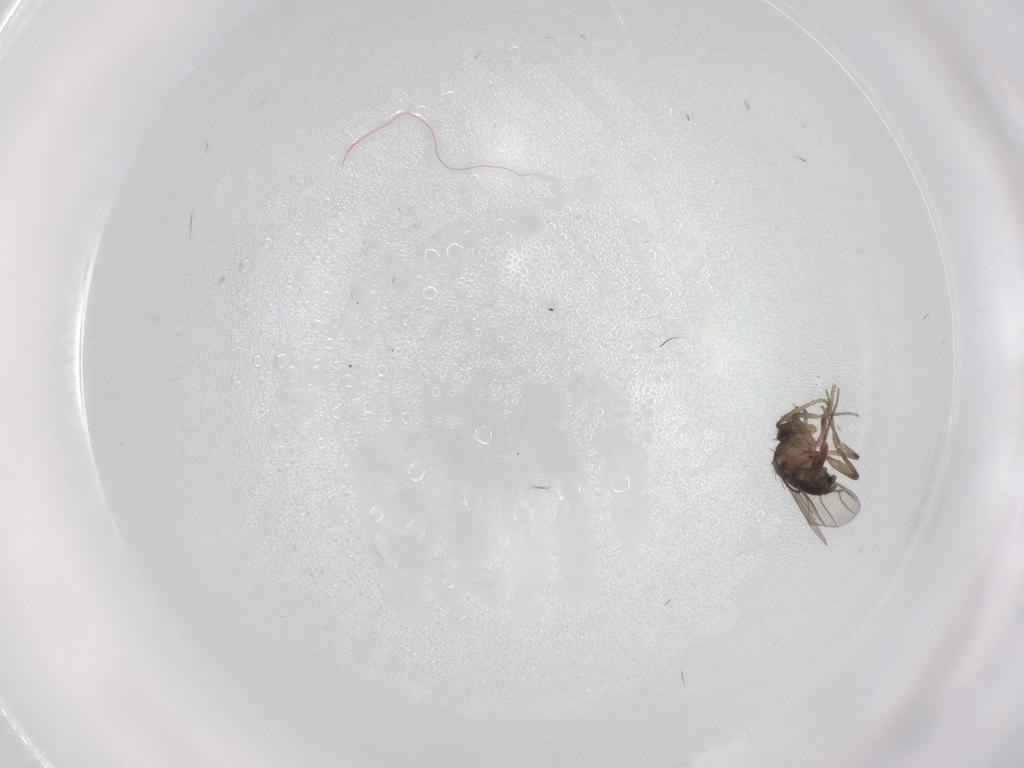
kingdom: Animalia
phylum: Arthropoda
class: Insecta
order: Diptera
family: Phoridae
